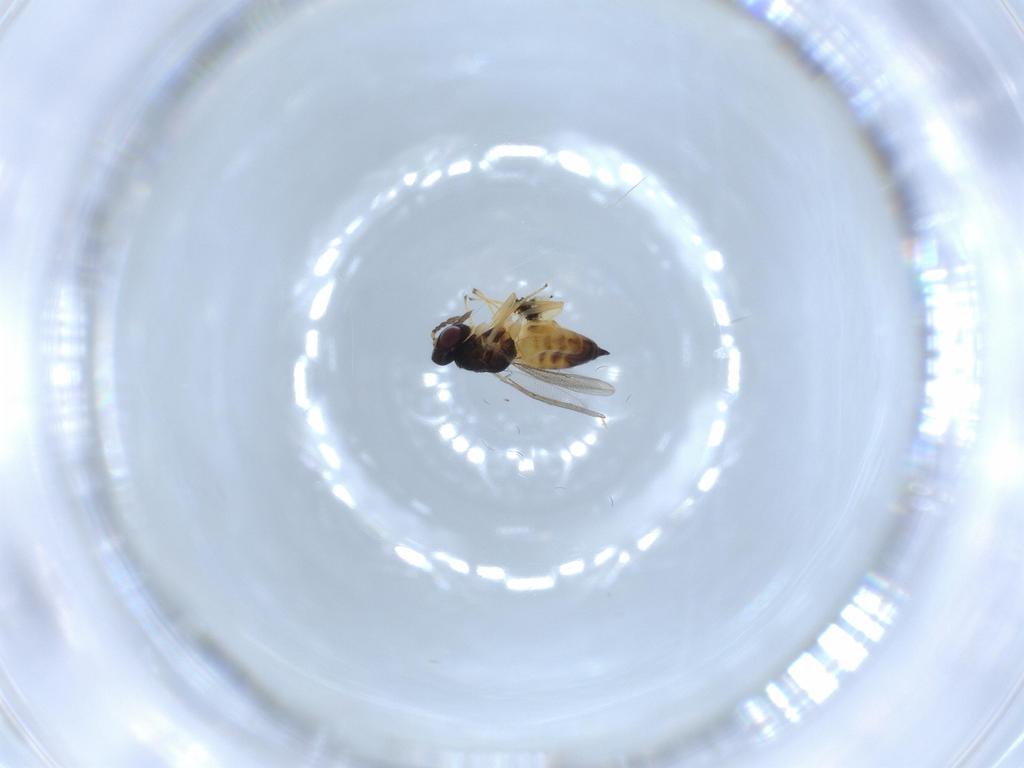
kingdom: Animalia
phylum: Arthropoda
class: Insecta
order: Hymenoptera
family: Eulophidae
